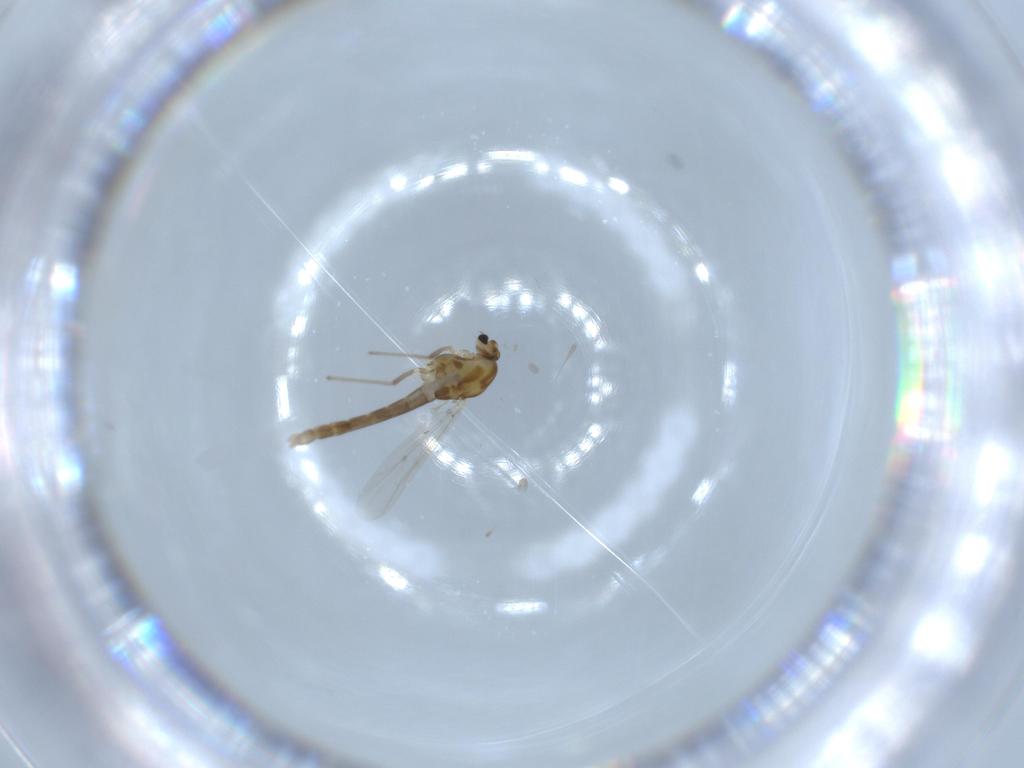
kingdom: Animalia
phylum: Arthropoda
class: Insecta
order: Diptera
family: Chironomidae
